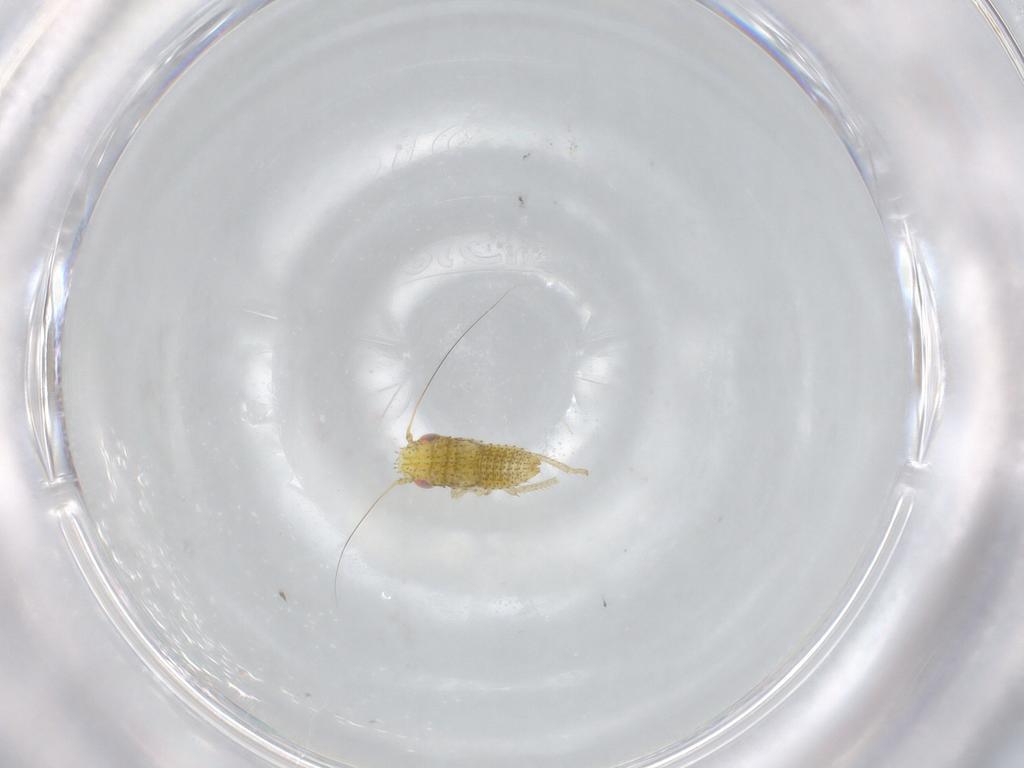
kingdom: Animalia
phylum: Arthropoda
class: Insecta
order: Hemiptera
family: Cicadellidae
